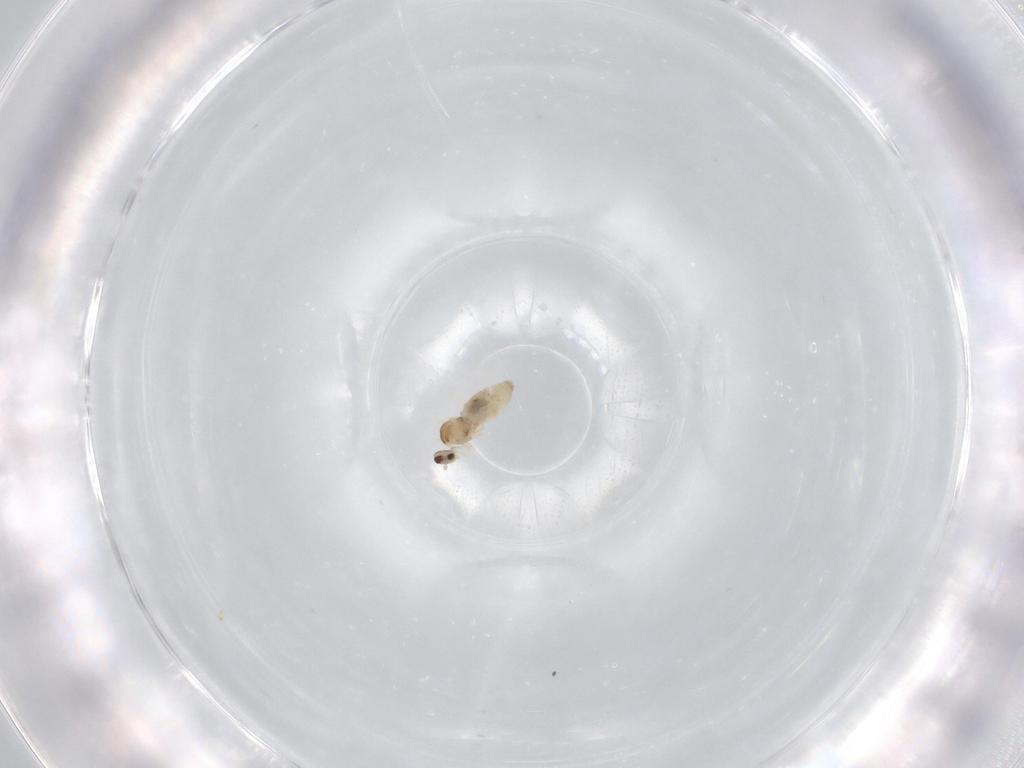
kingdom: Animalia
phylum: Arthropoda
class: Insecta
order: Diptera
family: Cecidomyiidae
